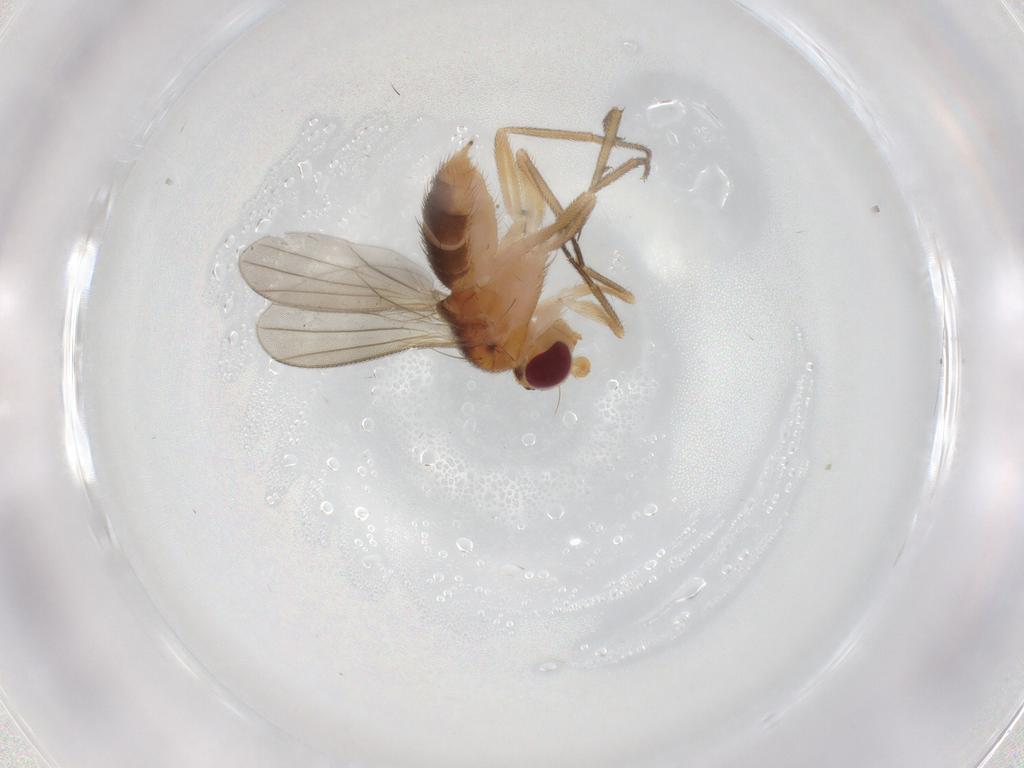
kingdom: Animalia
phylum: Arthropoda
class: Insecta
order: Diptera
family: Clusiidae
